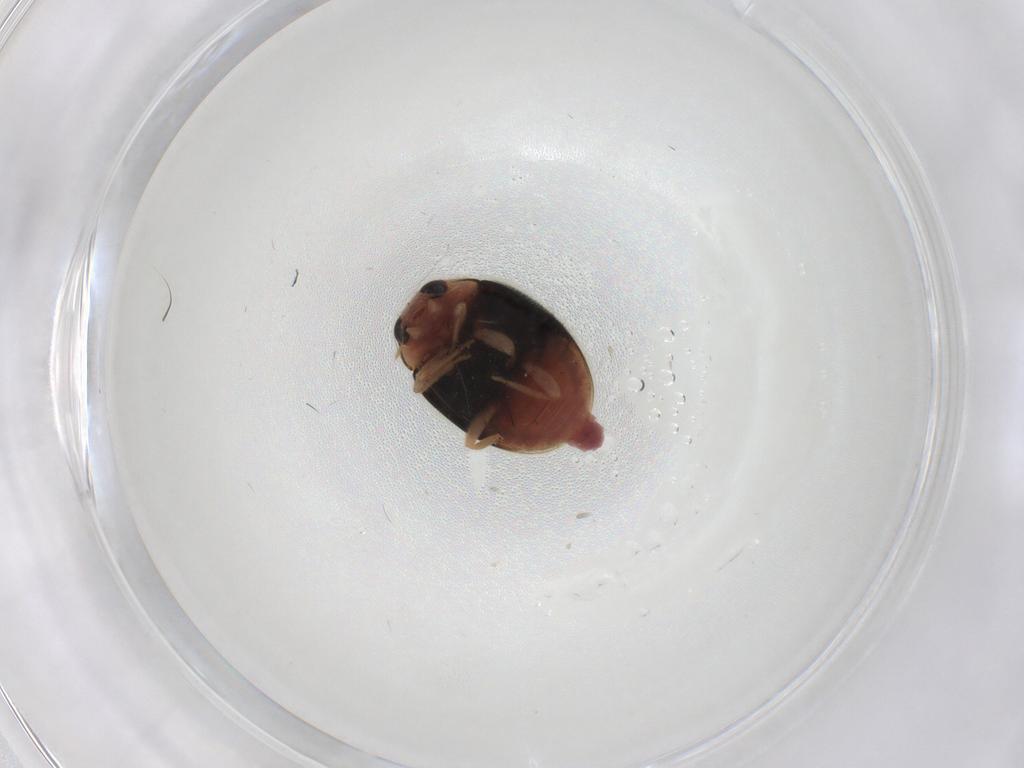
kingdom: Animalia
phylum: Arthropoda
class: Insecta
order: Coleoptera
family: Coccinellidae
